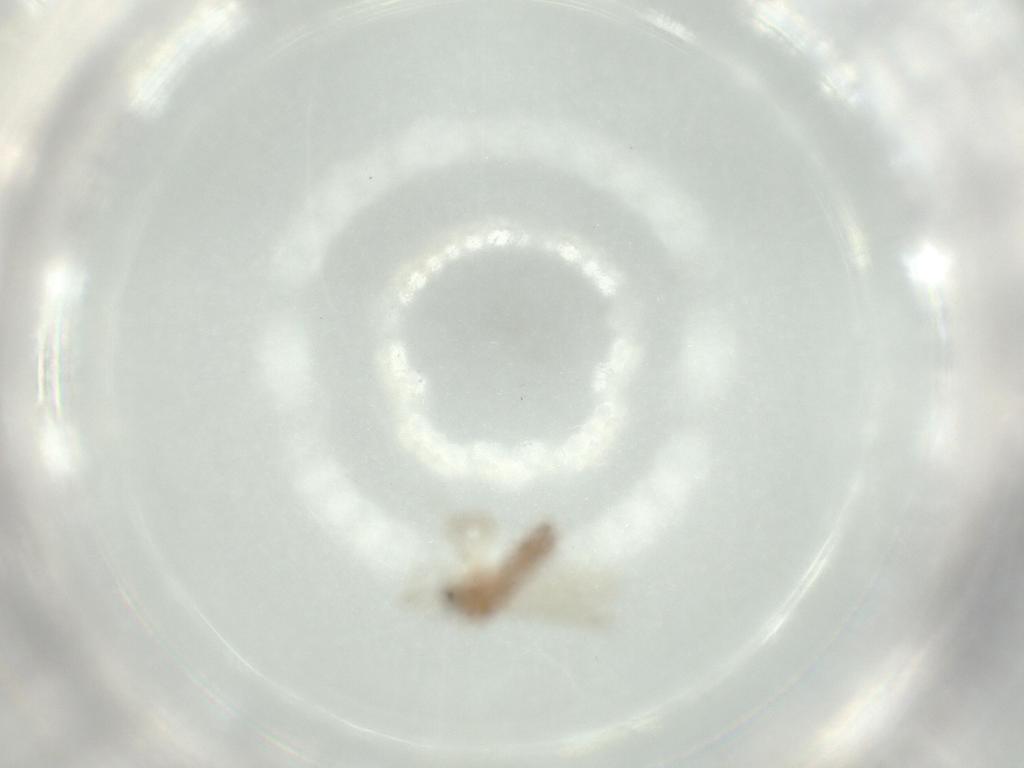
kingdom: Animalia
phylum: Arthropoda
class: Insecta
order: Diptera
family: Chironomidae
